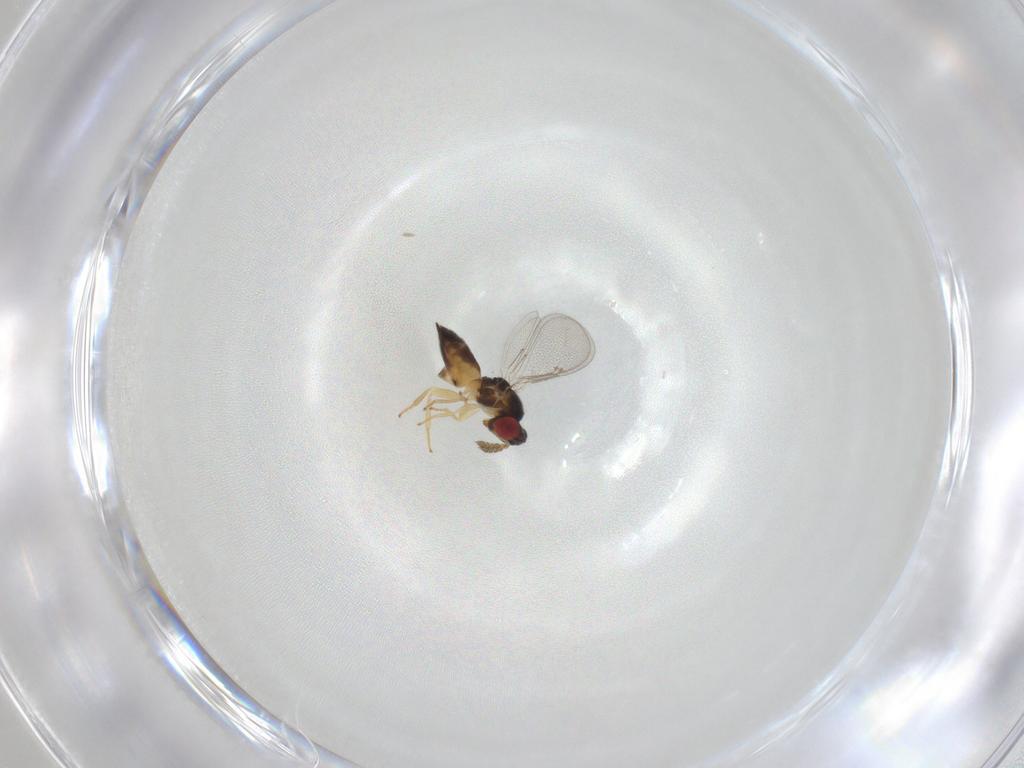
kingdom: Animalia
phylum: Arthropoda
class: Insecta
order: Hymenoptera
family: Eulophidae
